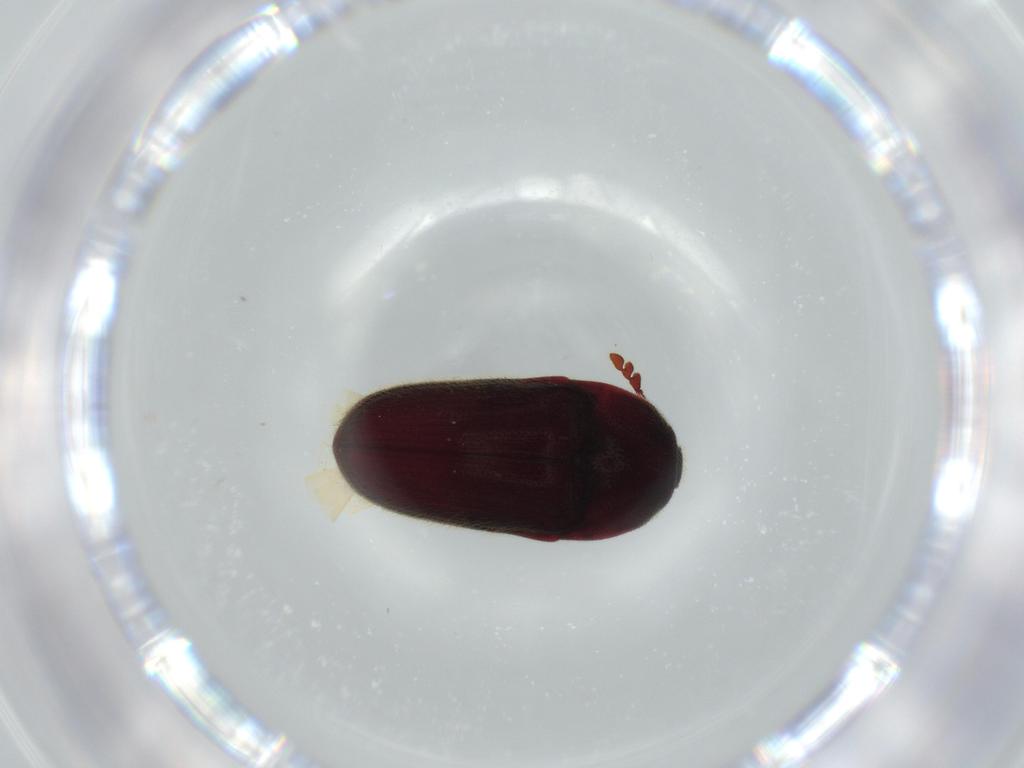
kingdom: Animalia
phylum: Arthropoda
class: Insecta
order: Coleoptera
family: Throscidae
